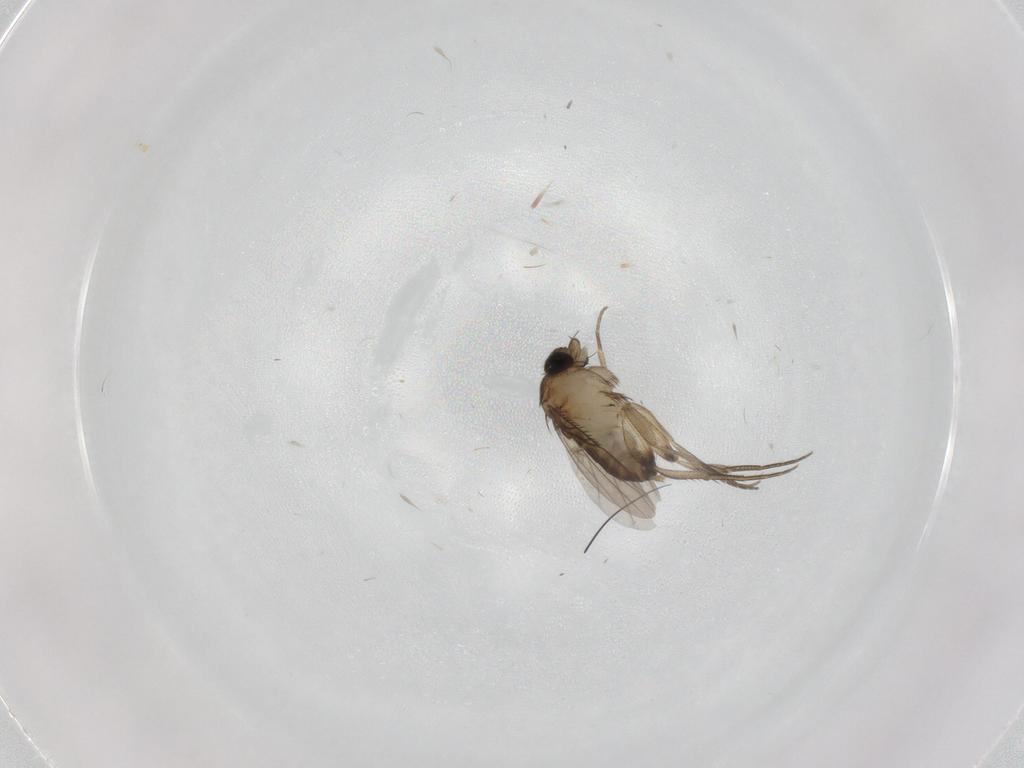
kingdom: Animalia
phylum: Arthropoda
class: Insecta
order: Diptera
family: Phoridae
